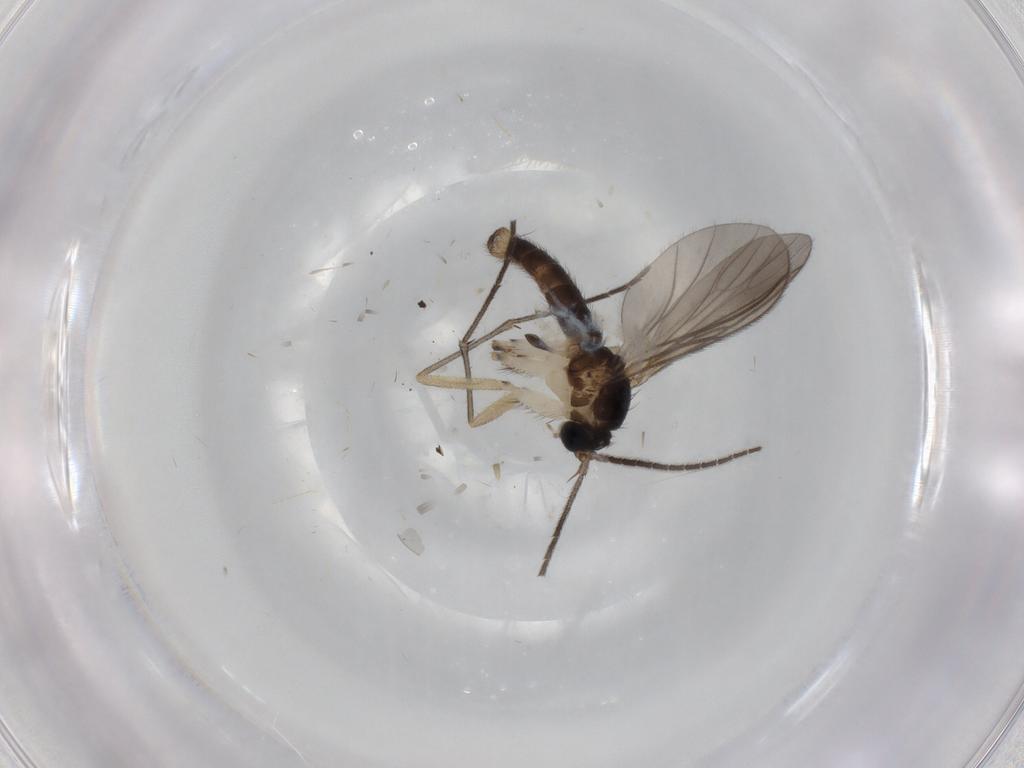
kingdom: Animalia
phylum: Arthropoda
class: Insecta
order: Diptera
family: Sciaridae
